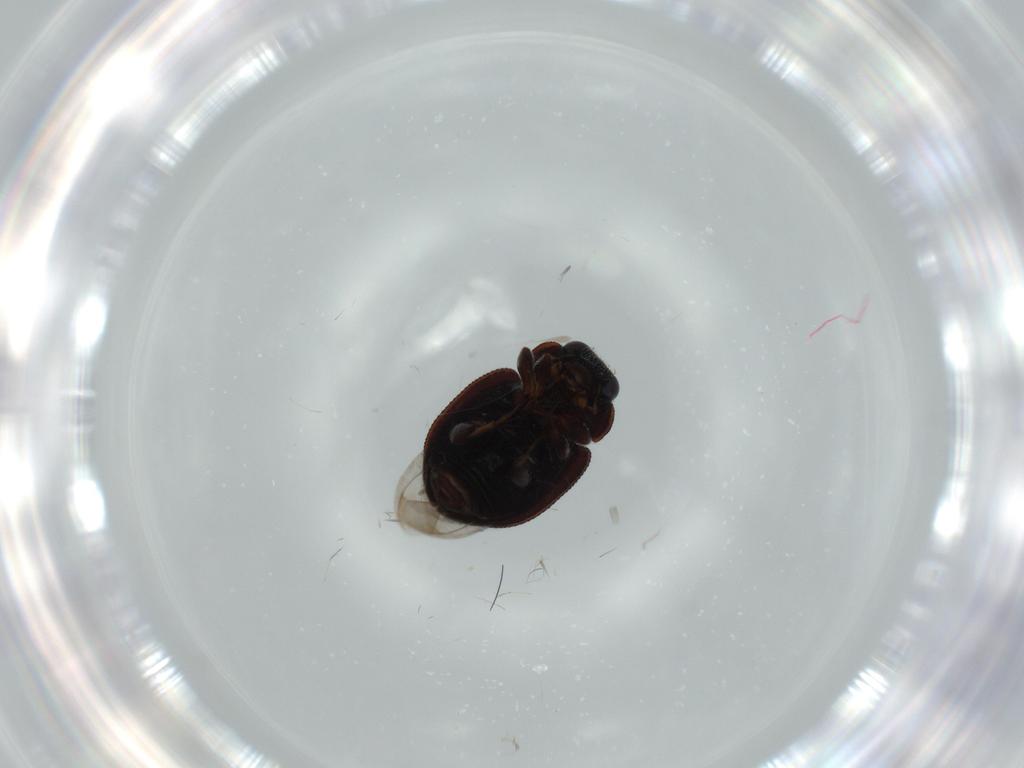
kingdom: Animalia
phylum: Arthropoda
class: Insecta
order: Coleoptera
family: Coccinellidae
